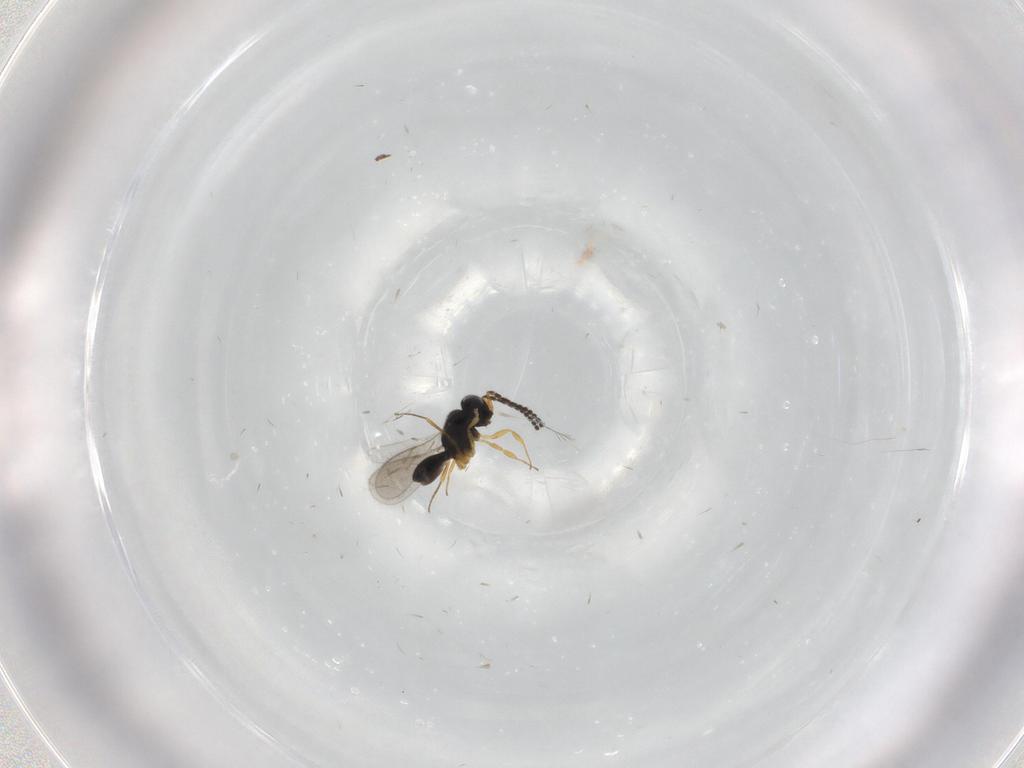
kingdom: Animalia
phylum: Arthropoda
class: Insecta
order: Hymenoptera
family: Scelionidae
